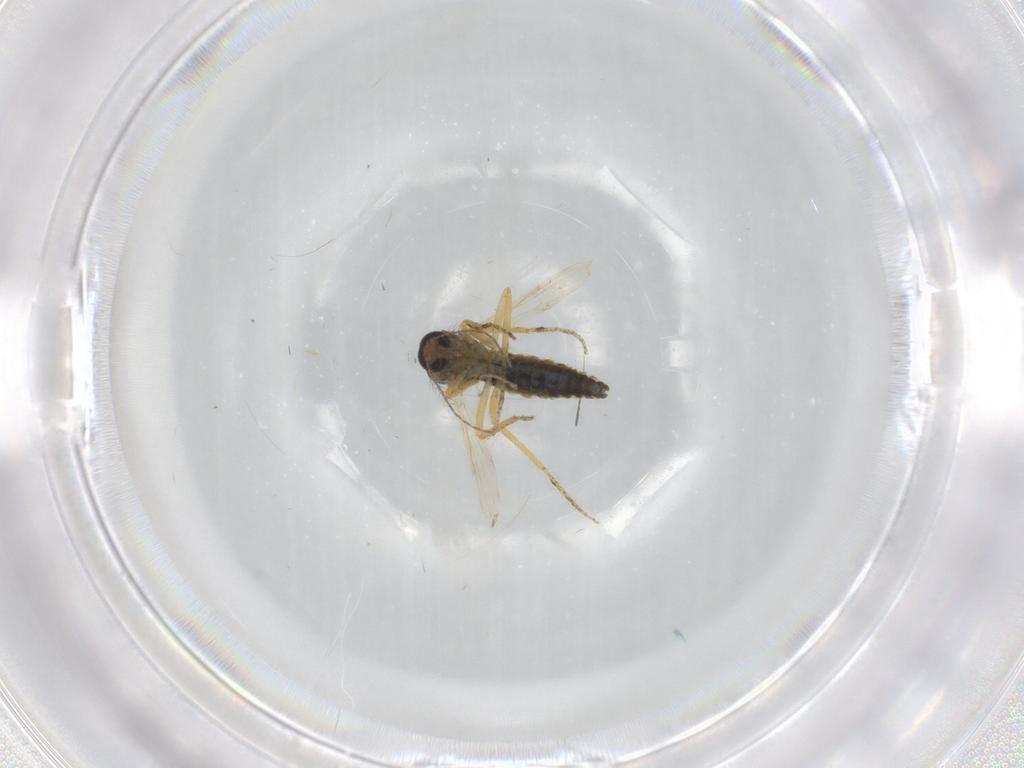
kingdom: Animalia
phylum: Arthropoda
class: Insecta
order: Diptera
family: Ceratopogonidae
